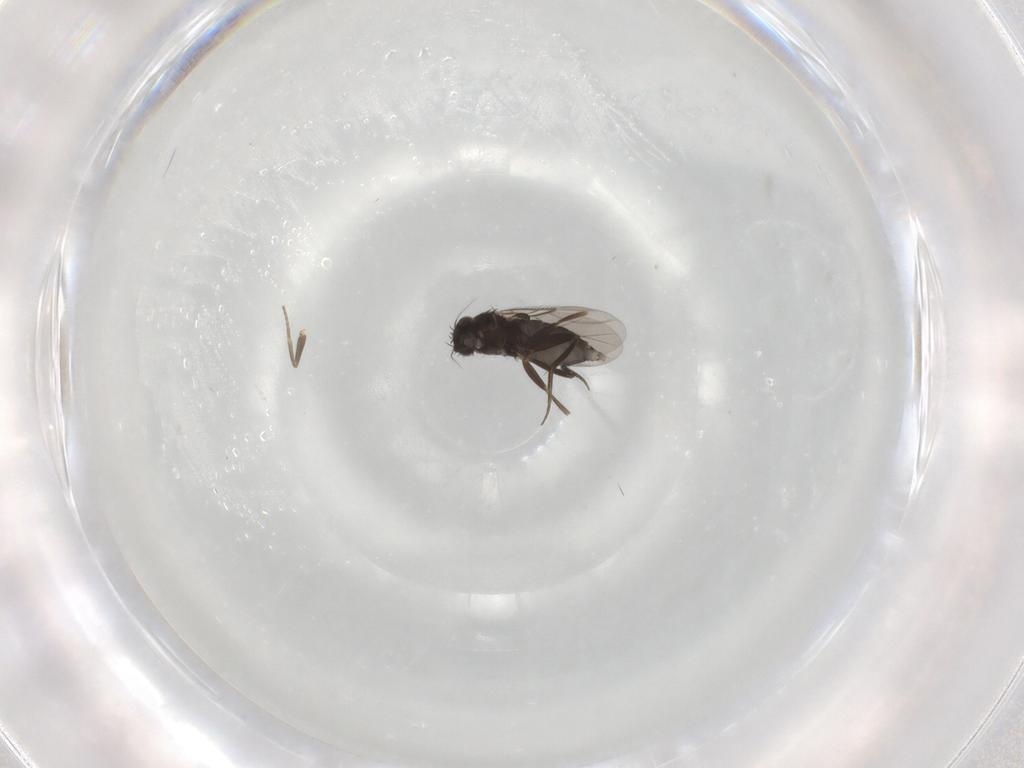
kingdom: Animalia
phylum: Arthropoda
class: Insecta
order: Diptera
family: Phoridae
